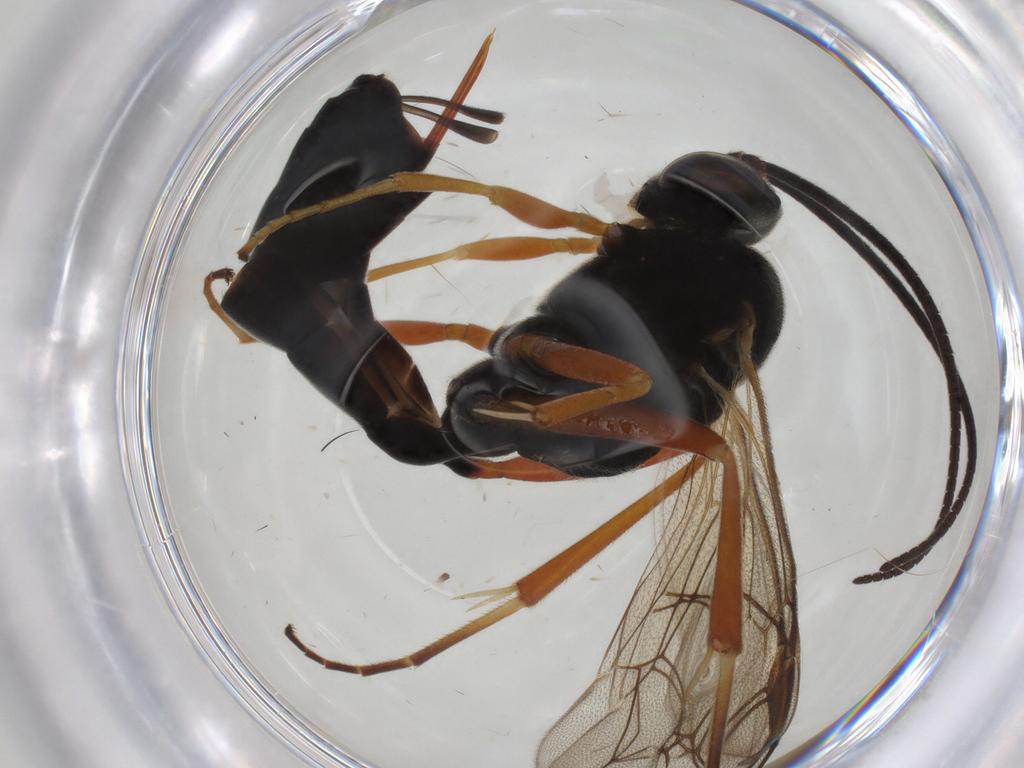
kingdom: Animalia
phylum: Arthropoda
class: Insecta
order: Hymenoptera
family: Ichneumonidae
